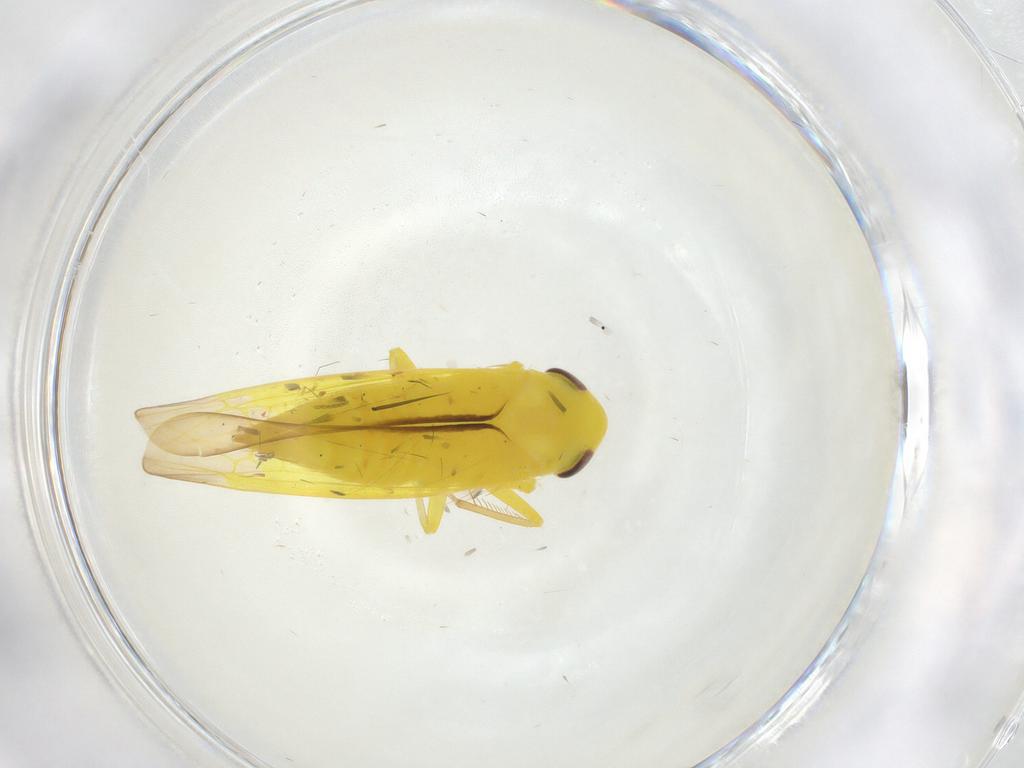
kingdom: Animalia
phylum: Arthropoda
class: Insecta
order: Hemiptera
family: Cicadellidae
